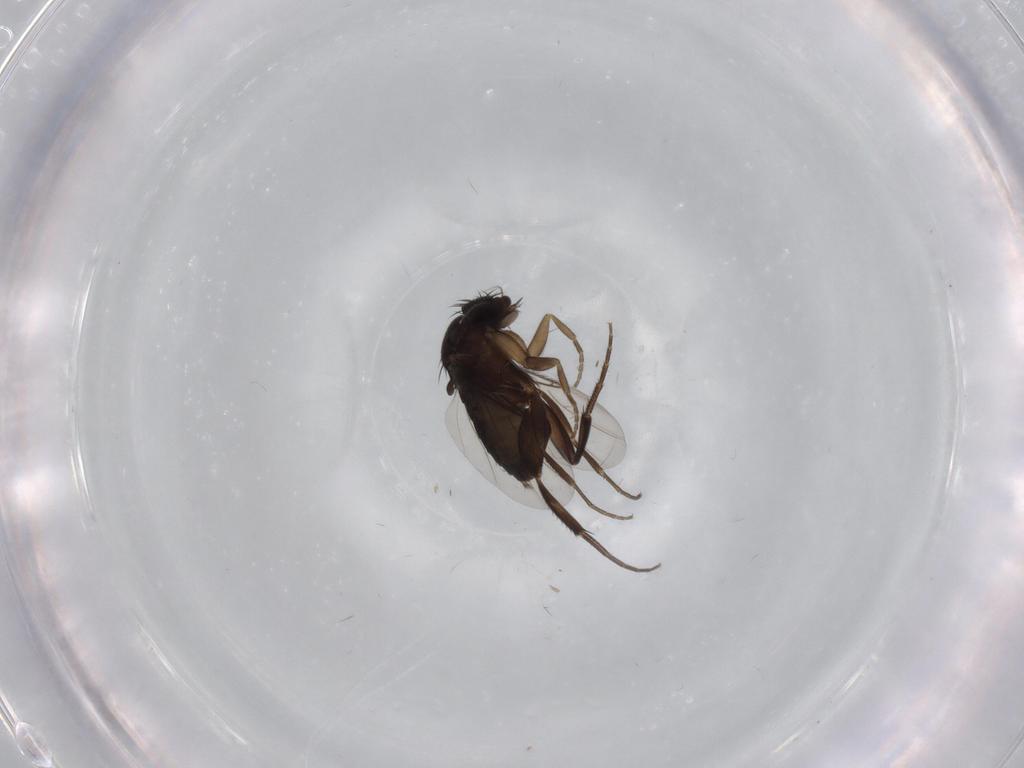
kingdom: Animalia
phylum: Arthropoda
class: Insecta
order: Diptera
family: Phoridae
